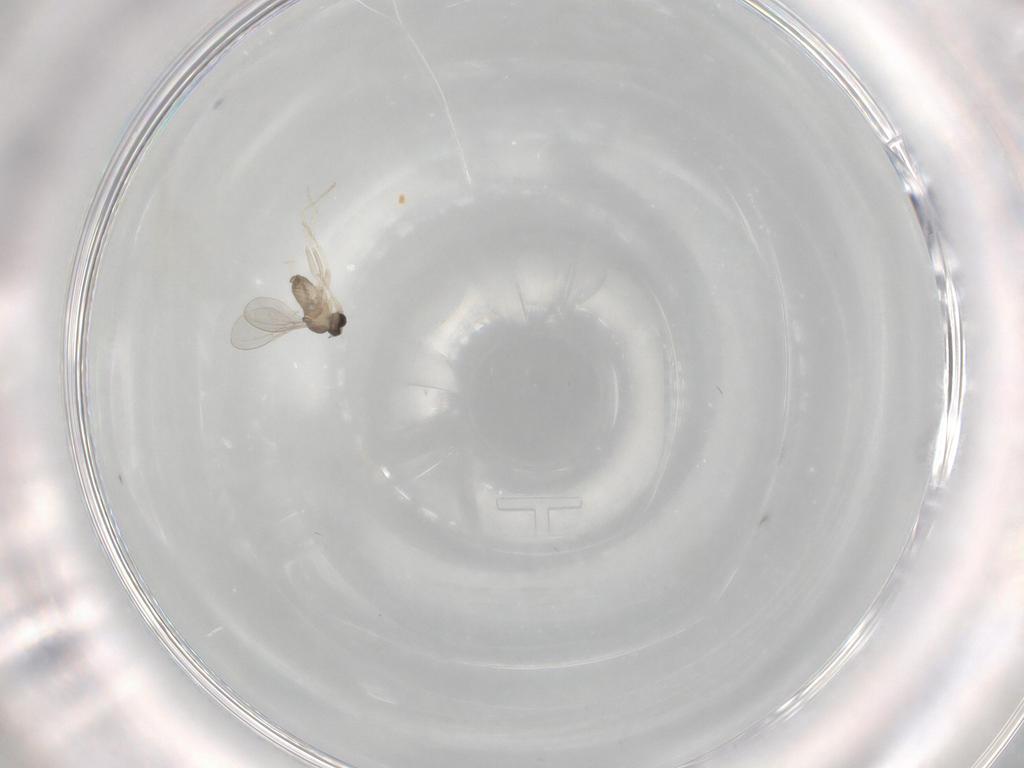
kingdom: Animalia
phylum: Arthropoda
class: Insecta
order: Diptera
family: Cecidomyiidae
